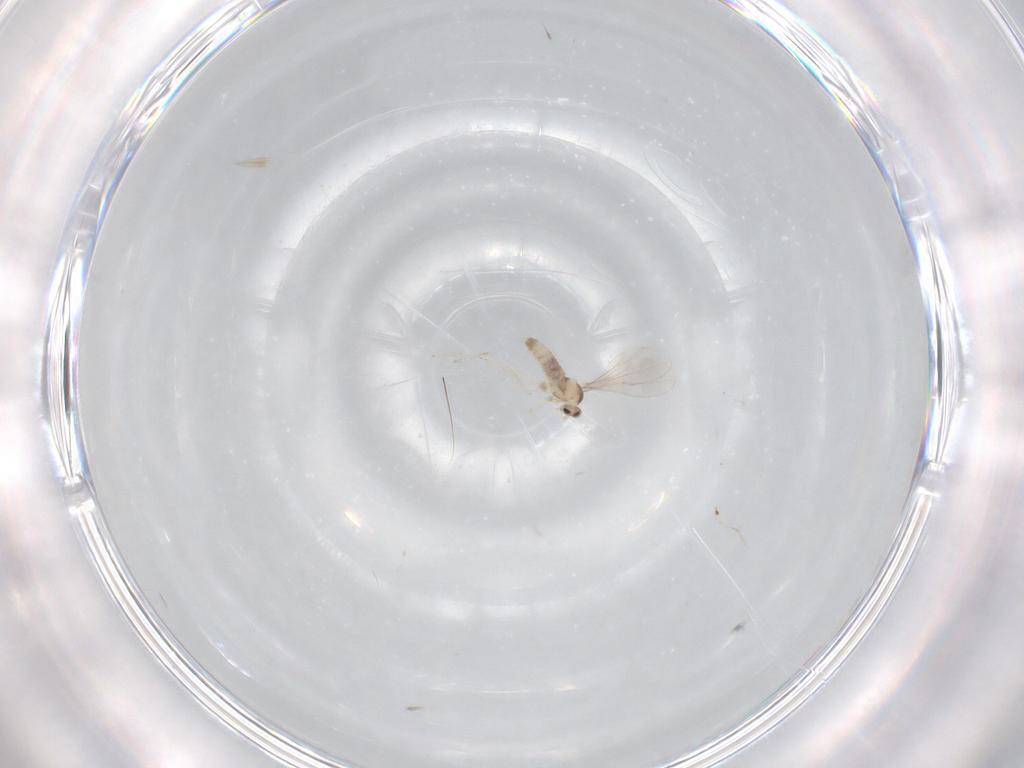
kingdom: Animalia
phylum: Arthropoda
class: Insecta
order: Diptera
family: Cecidomyiidae
